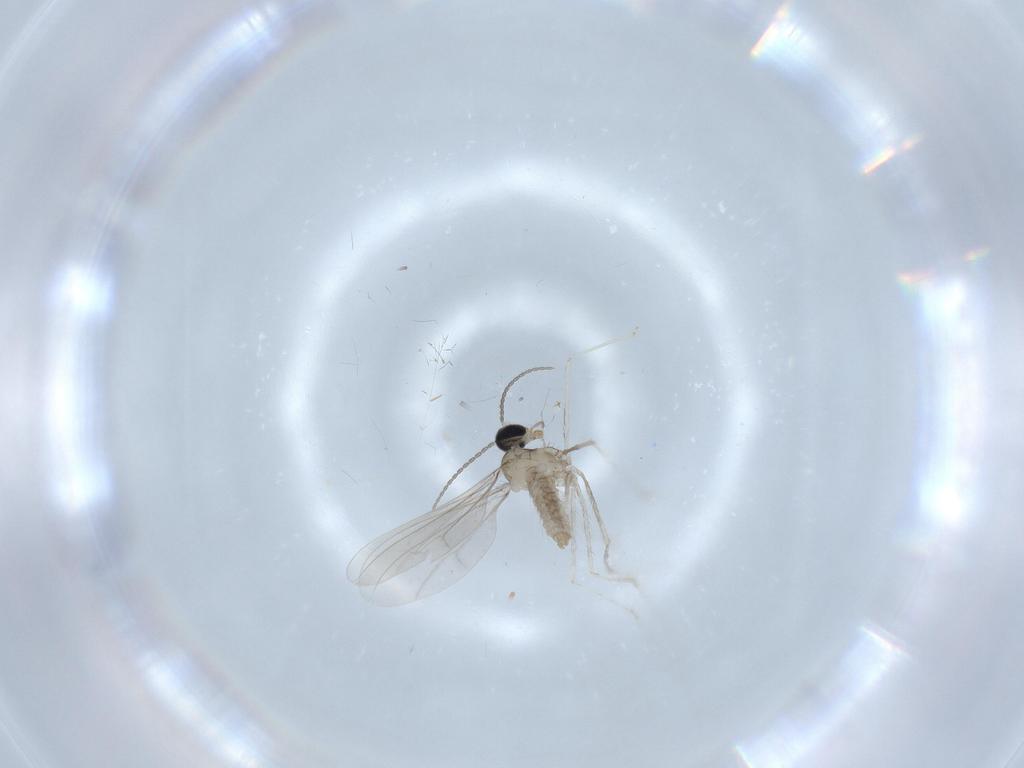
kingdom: Animalia
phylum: Arthropoda
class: Insecta
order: Diptera
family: Cecidomyiidae
